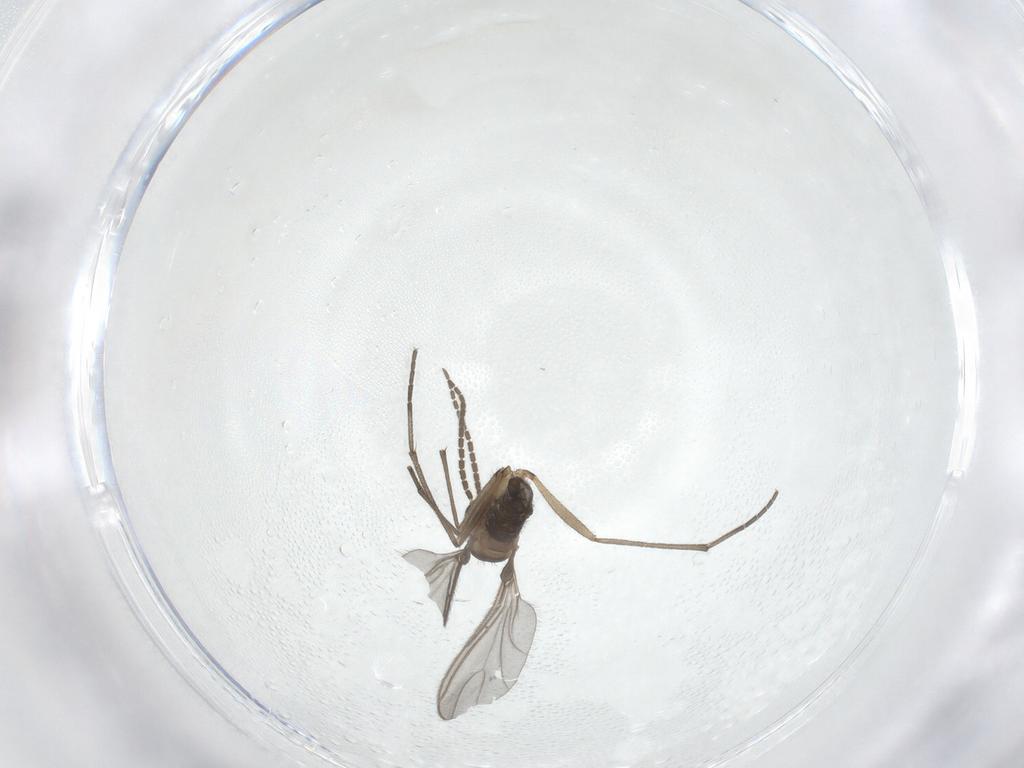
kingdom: Animalia
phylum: Arthropoda
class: Insecta
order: Diptera
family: Sciaridae
